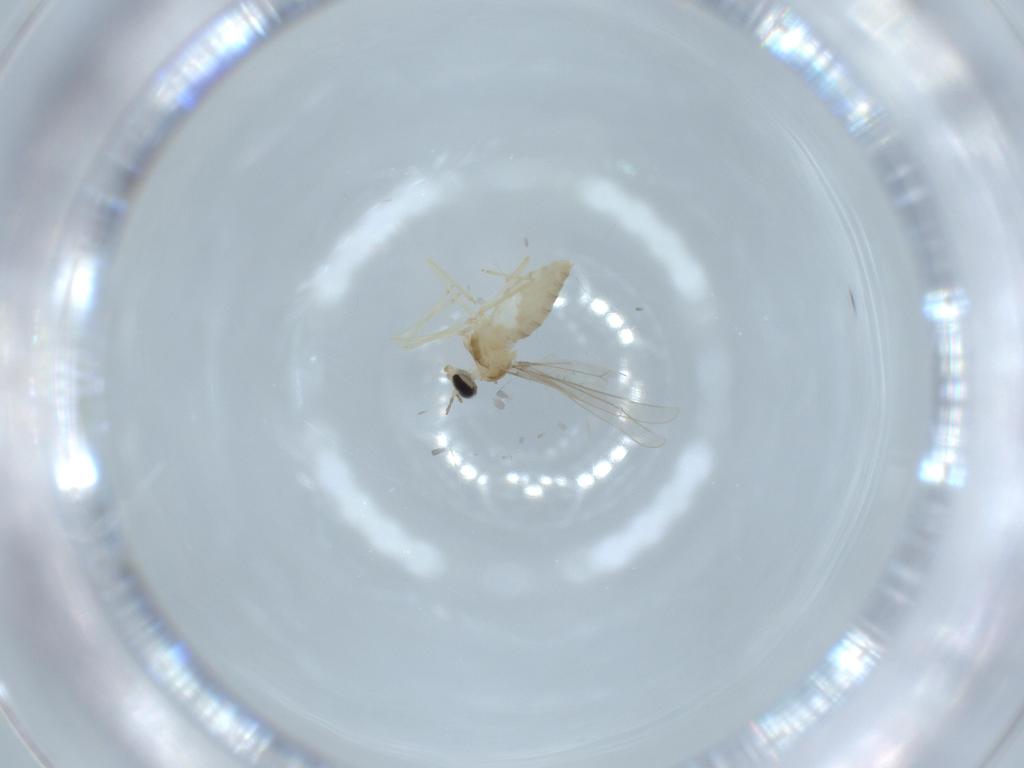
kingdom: Animalia
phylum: Arthropoda
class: Insecta
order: Diptera
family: Cecidomyiidae
